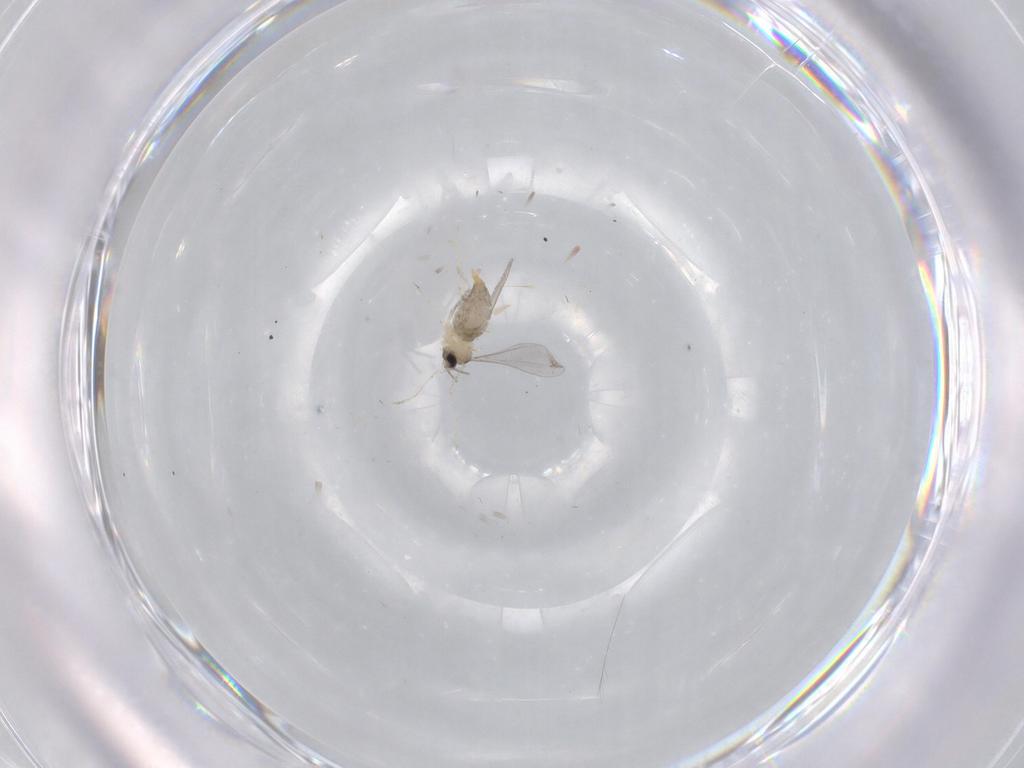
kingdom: Animalia
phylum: Arthropoda
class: Insecta
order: Diptera
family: Cecidomyiidae
